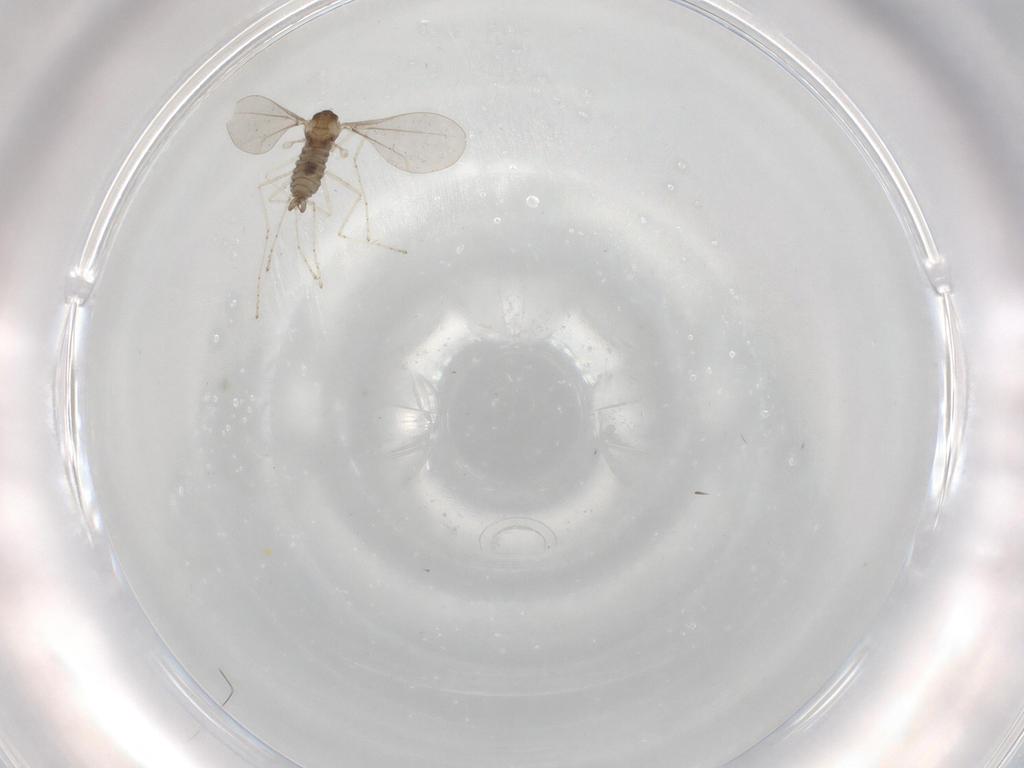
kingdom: Animalia
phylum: Arthropoda
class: Insecta
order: Diptera
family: Cecidomyiidae
